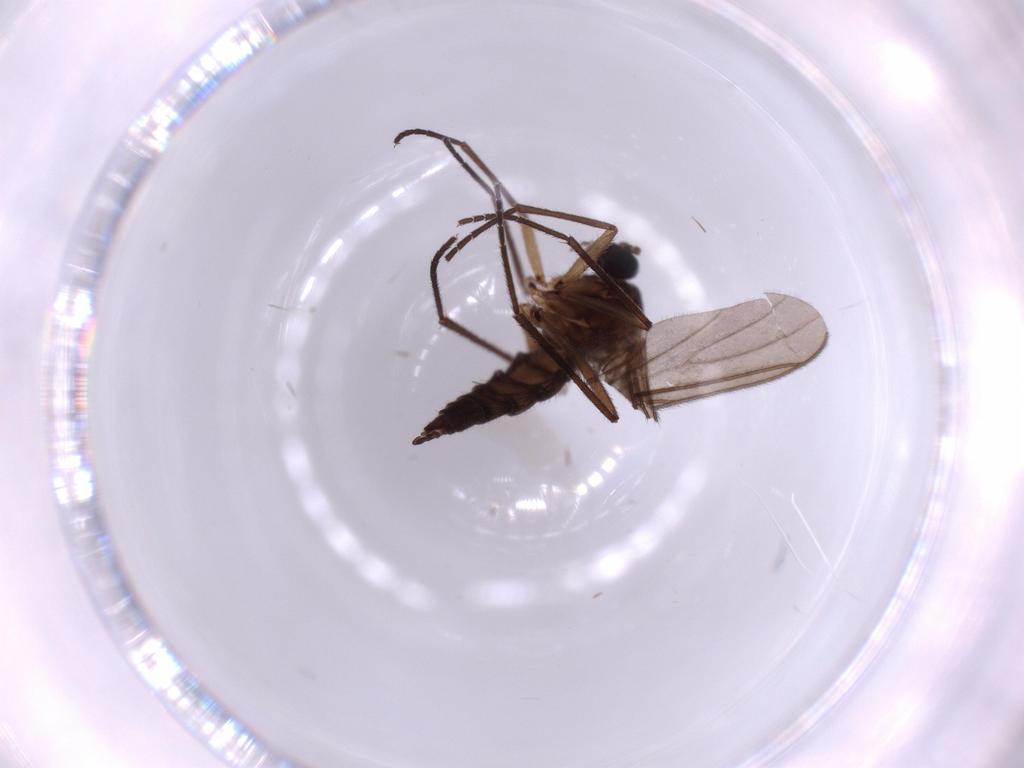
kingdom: Animalia
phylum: Arthropoda
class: Insecta
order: Diptera
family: Sciaridae
